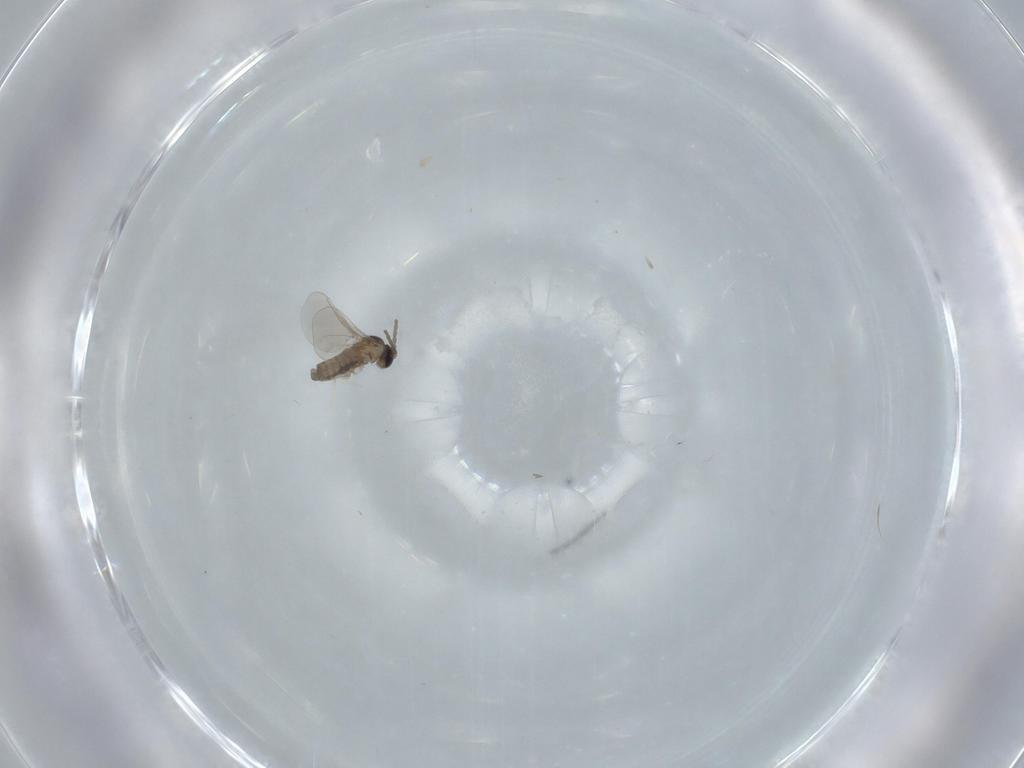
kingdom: Animalia
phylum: Arthropoda
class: Insecta
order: Diptera
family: Cecidomyiidae
